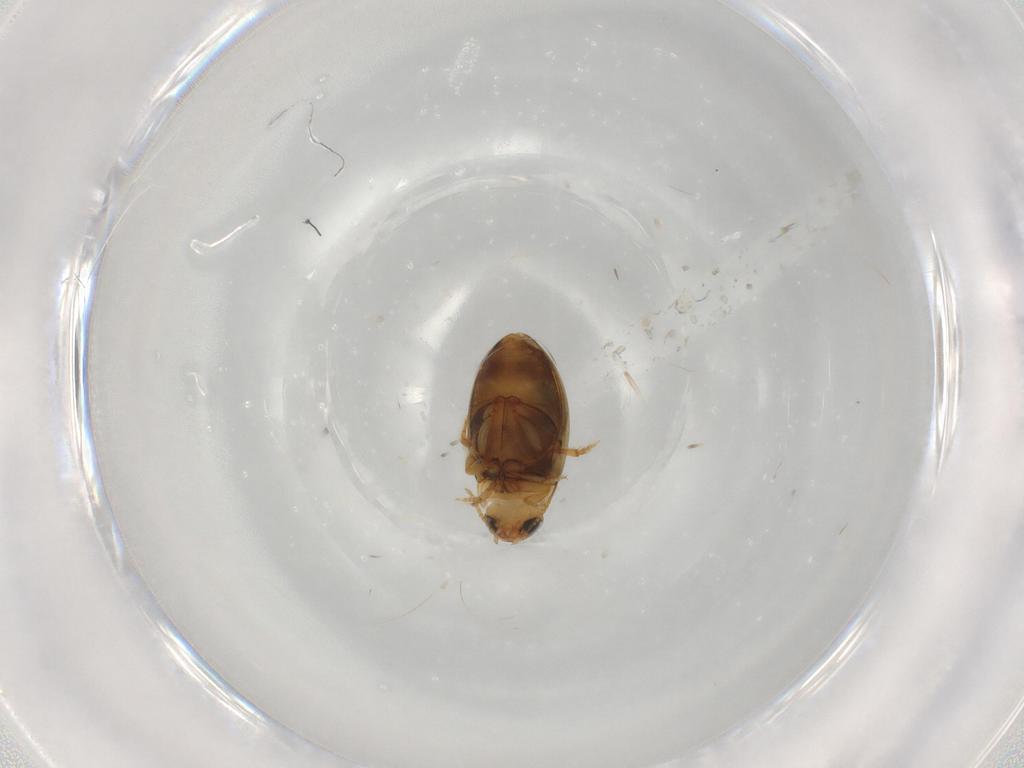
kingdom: Animalia
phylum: Arthropoda
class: Insecta
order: Coleoptera
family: Dytiscidae
